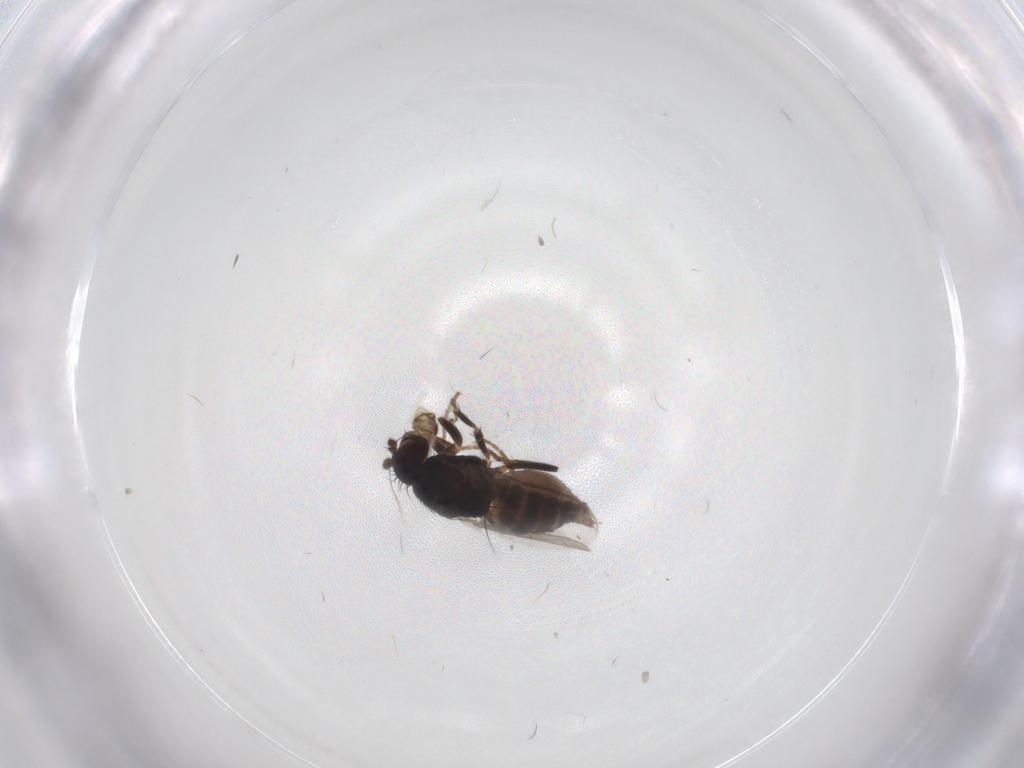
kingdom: Animalia
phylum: Arthropoda
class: Insecta
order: Diptera
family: Sphaeroceridae
